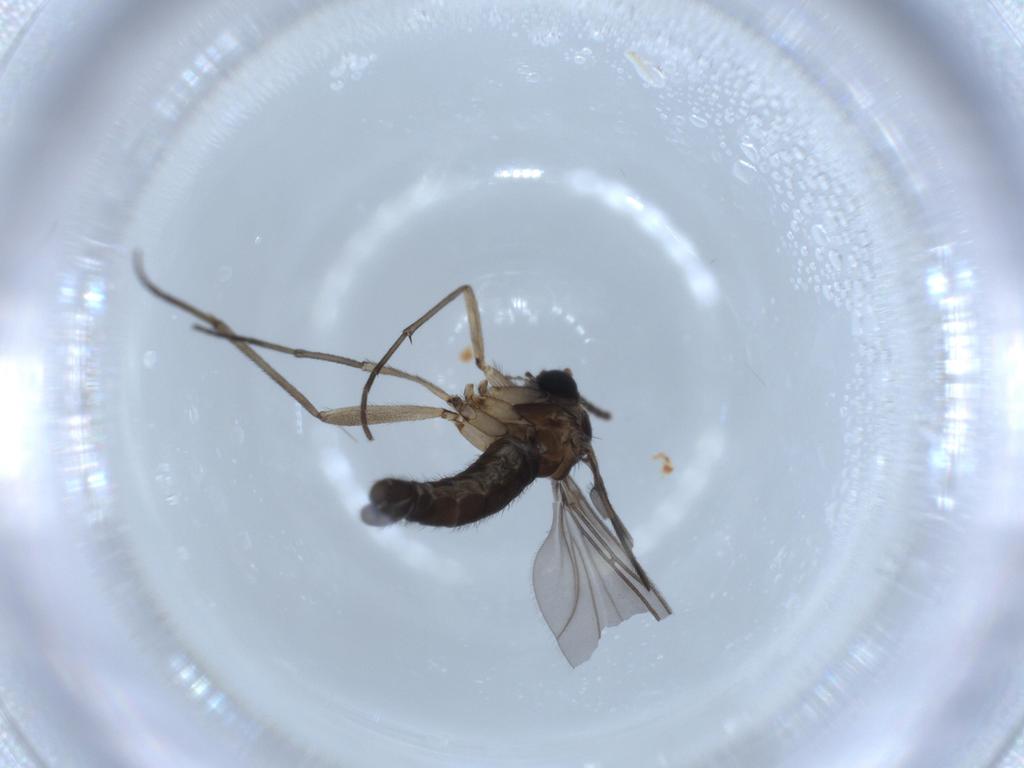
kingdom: Animalia
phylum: Arthropoda
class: Insecta
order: Diptera
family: Sciaridae
